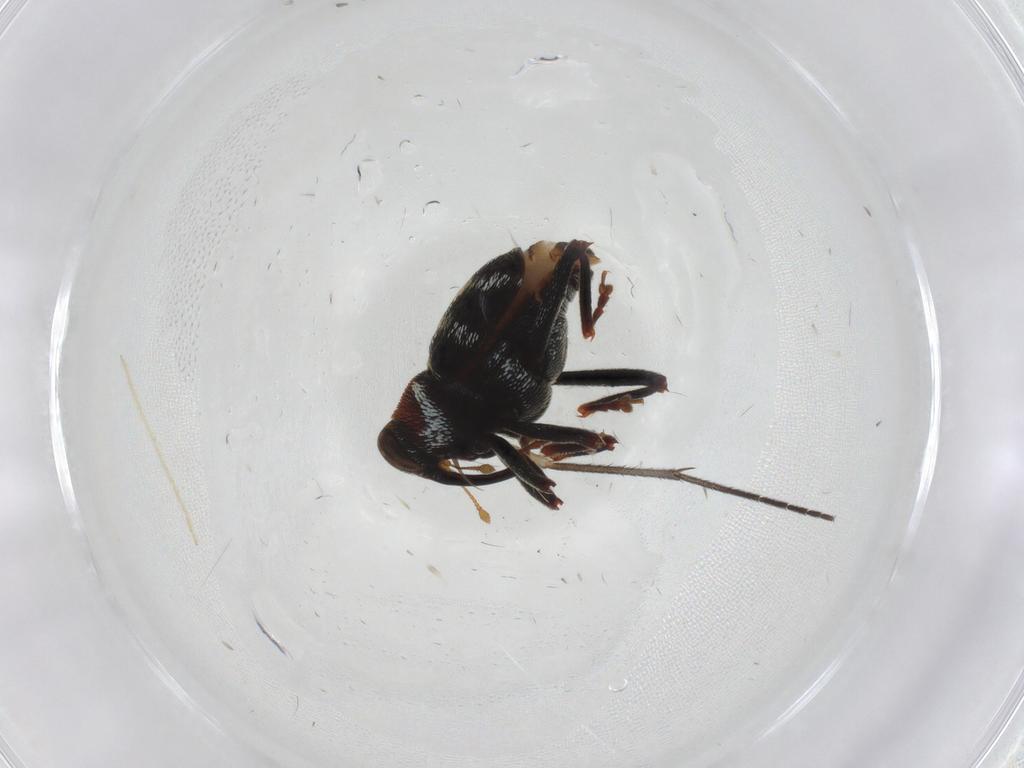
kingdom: Animalia
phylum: Arthropoda
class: Insecta
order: Coleoptera
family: Curculionidae
